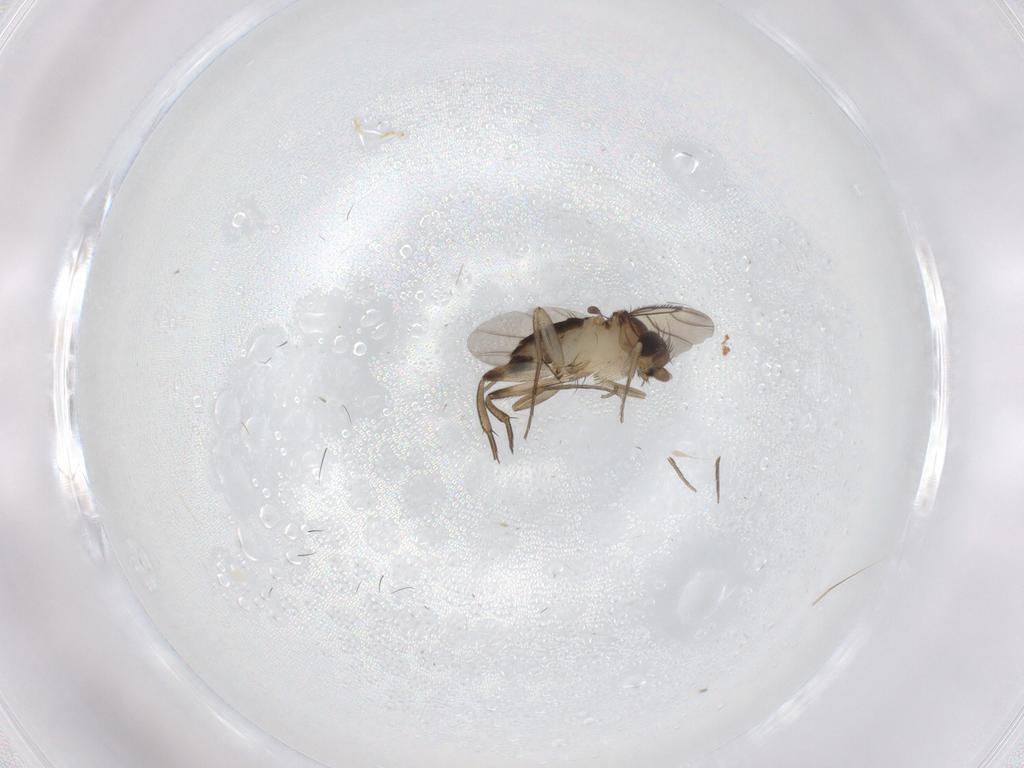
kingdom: Animalia
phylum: Arthropoda
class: Insecta
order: Diptera
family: Phoridae
